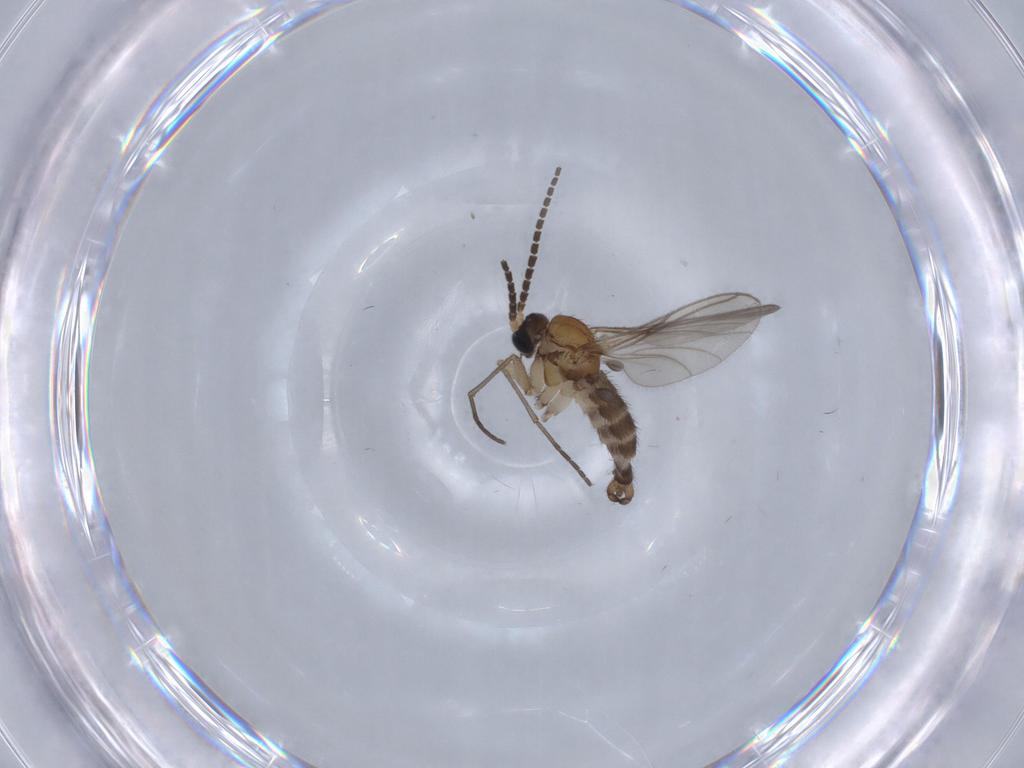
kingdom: Animalia
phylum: Arthropoda
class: Insecta
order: Diptera
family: Sciaridae
